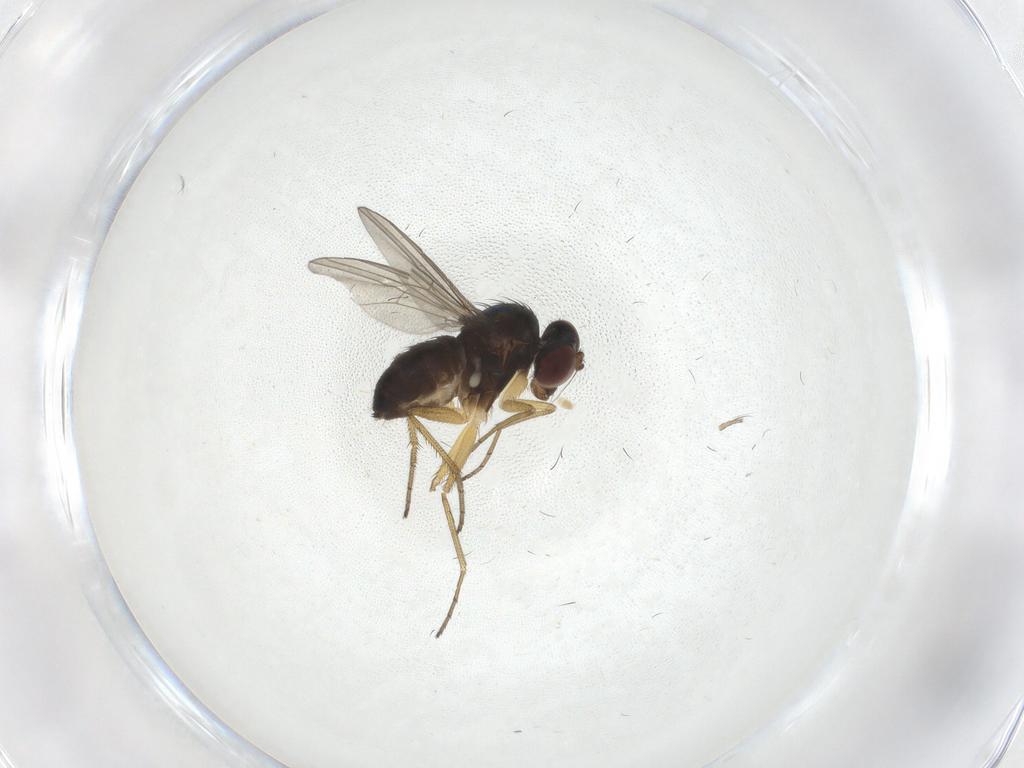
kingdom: Animalia
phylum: Arthropoda
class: Insecta
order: Diptera
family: Dolichopodidae
